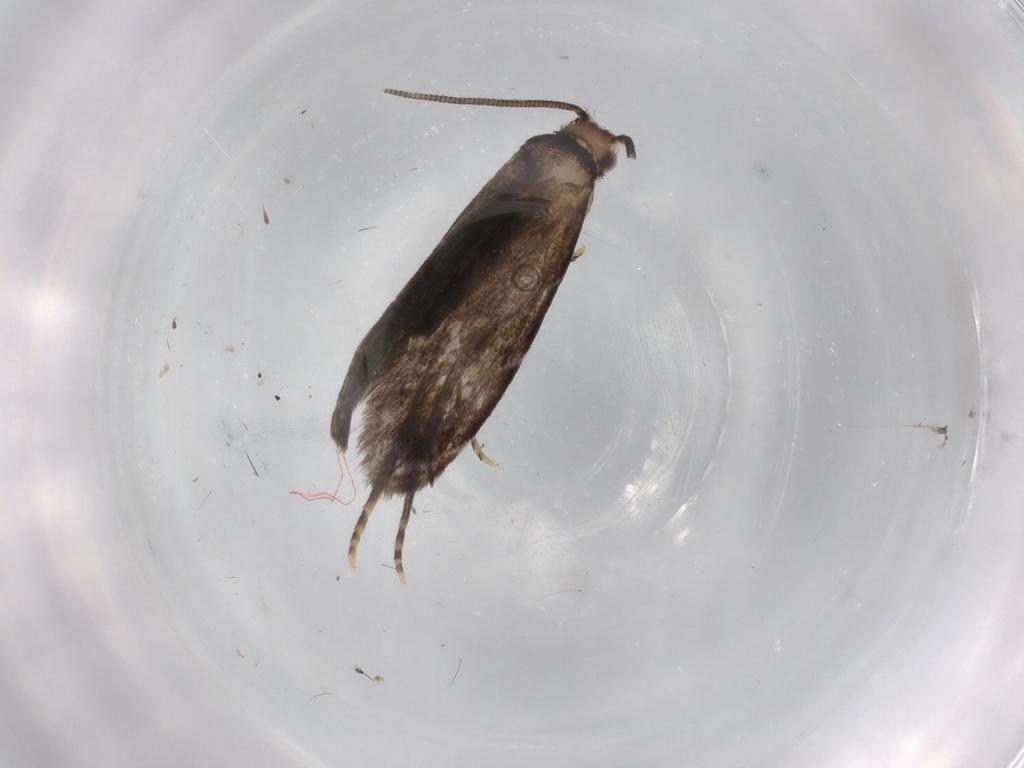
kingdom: Animalia
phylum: Arthropoda
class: Insecta
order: Lepidoptera
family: Dryadaulidae
